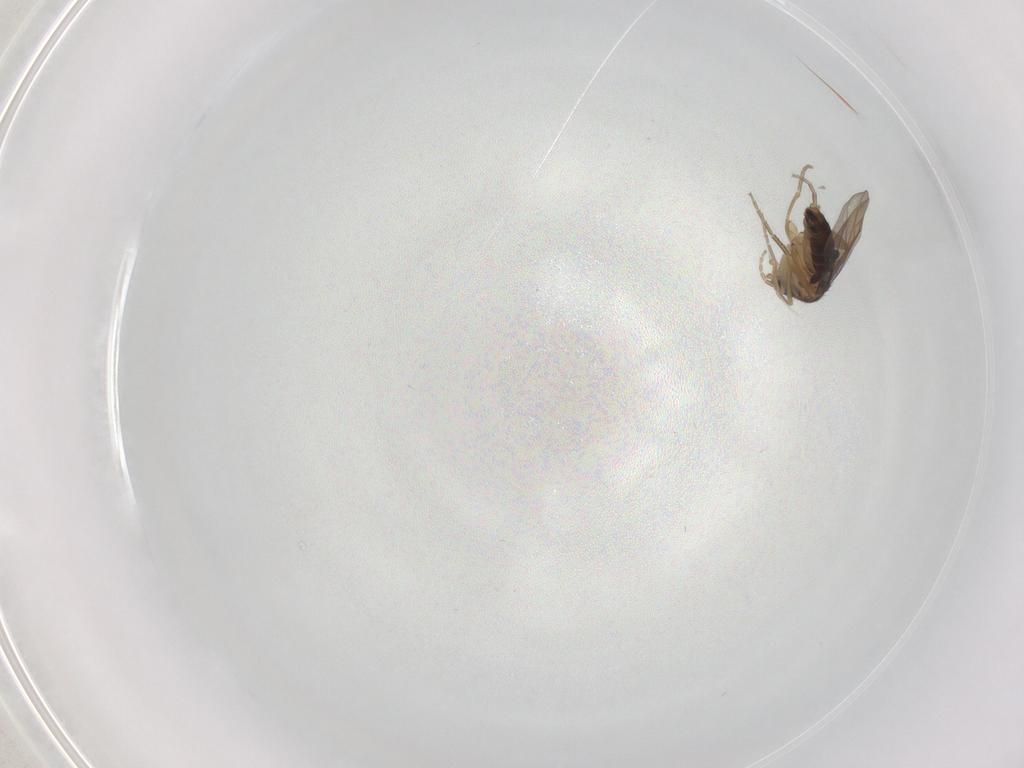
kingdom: Animalia
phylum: Arthropoda
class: Insecta
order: Diptera
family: Phoridae
